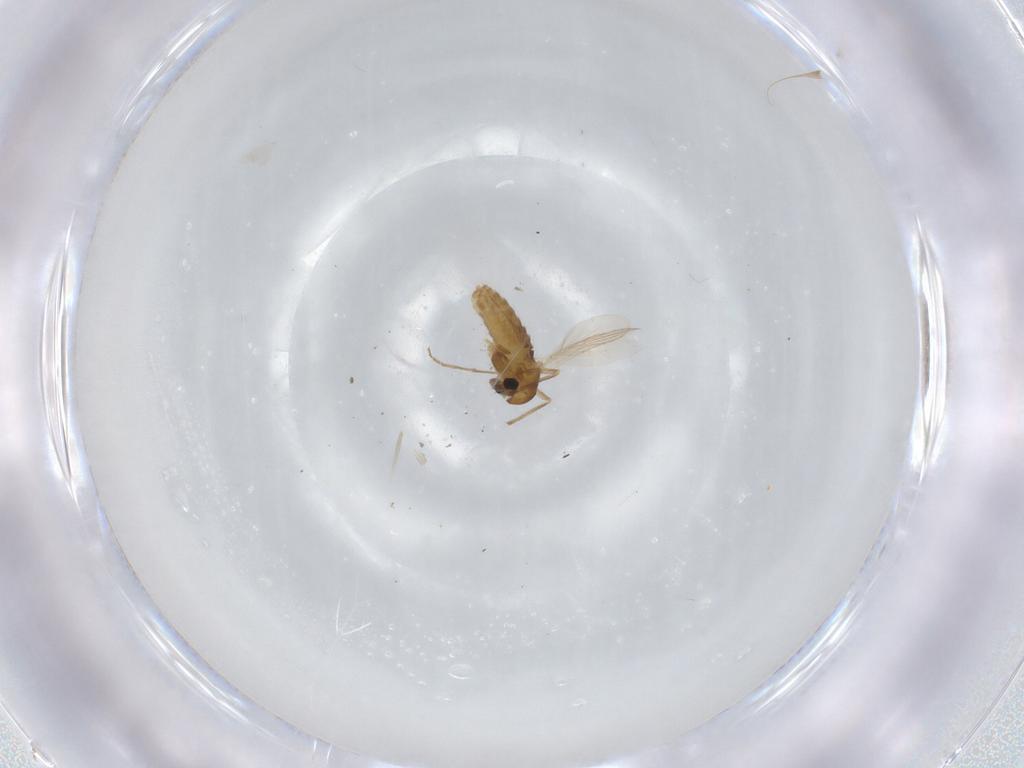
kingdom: Animalia
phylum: Arthropoda
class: Insecta
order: Diptera
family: Chironomidae
